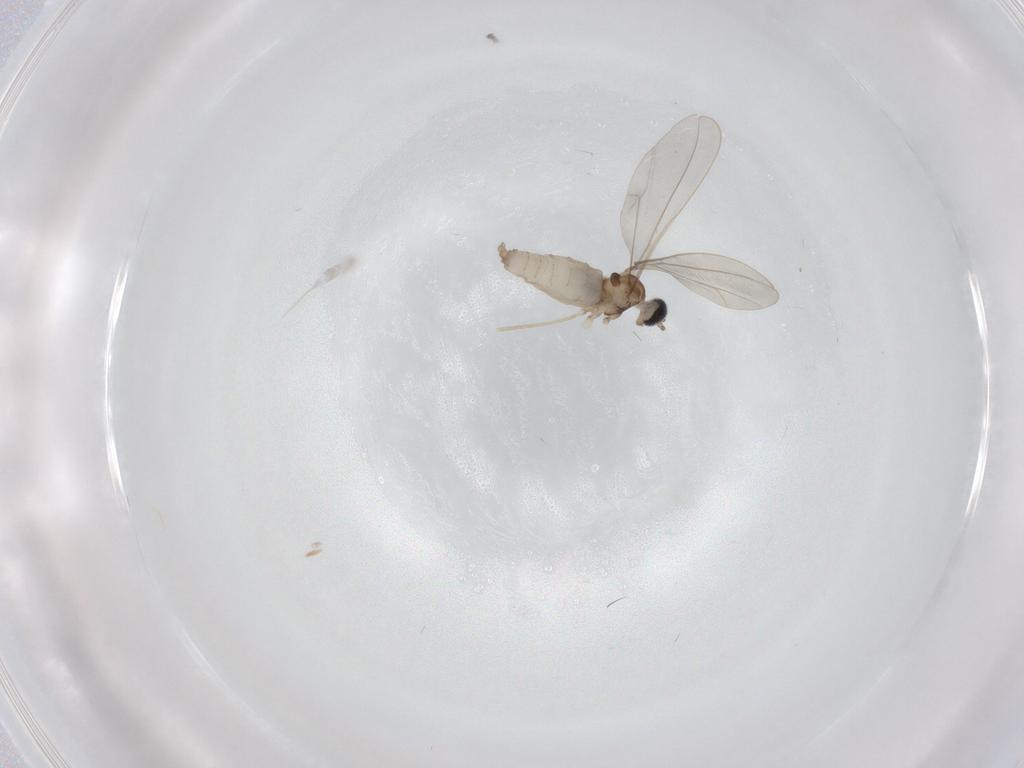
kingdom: Animalia
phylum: Arthropoda
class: Insecta
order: Diptera
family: Cecidomyiidae
